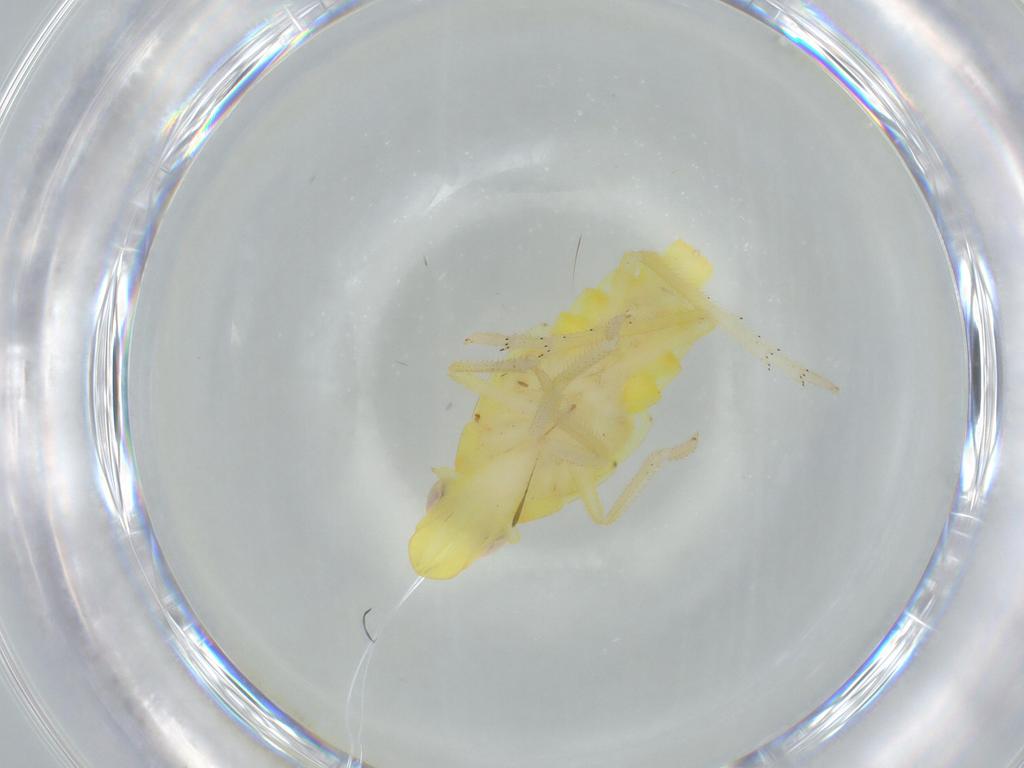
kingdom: Animalia
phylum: Arthropoda
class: Insecta
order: Hemiptera
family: Tropiduchidae
